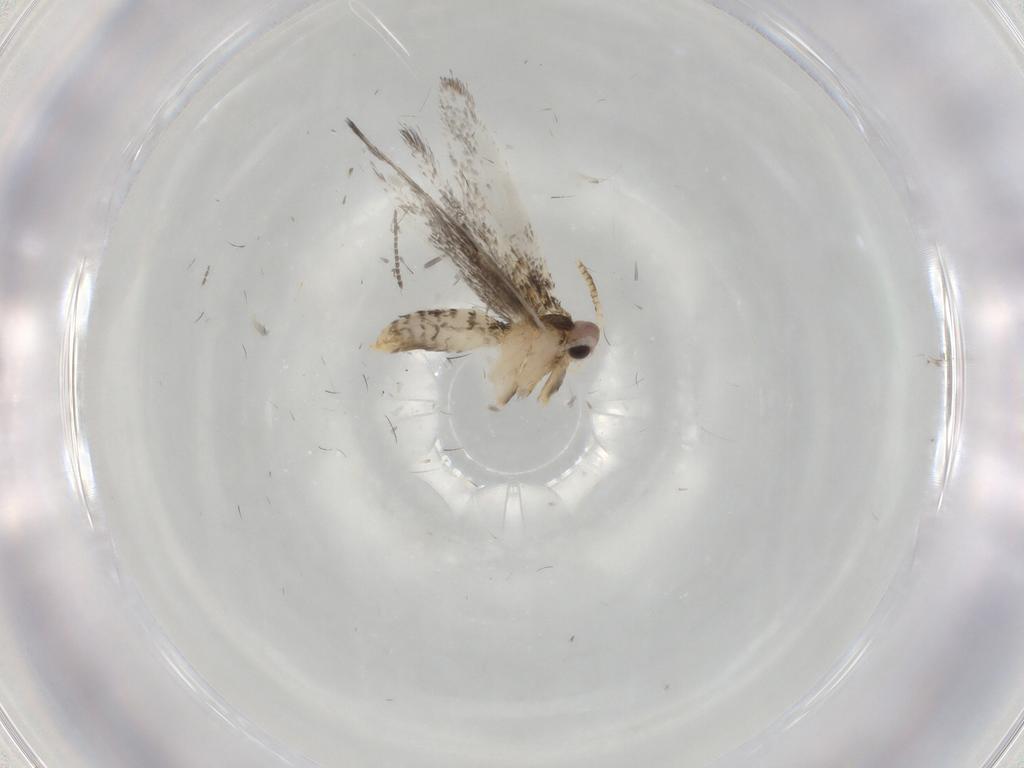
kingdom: Animalia
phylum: Arthropoda
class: Insecta
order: Lepidoptera
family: Tineidae
